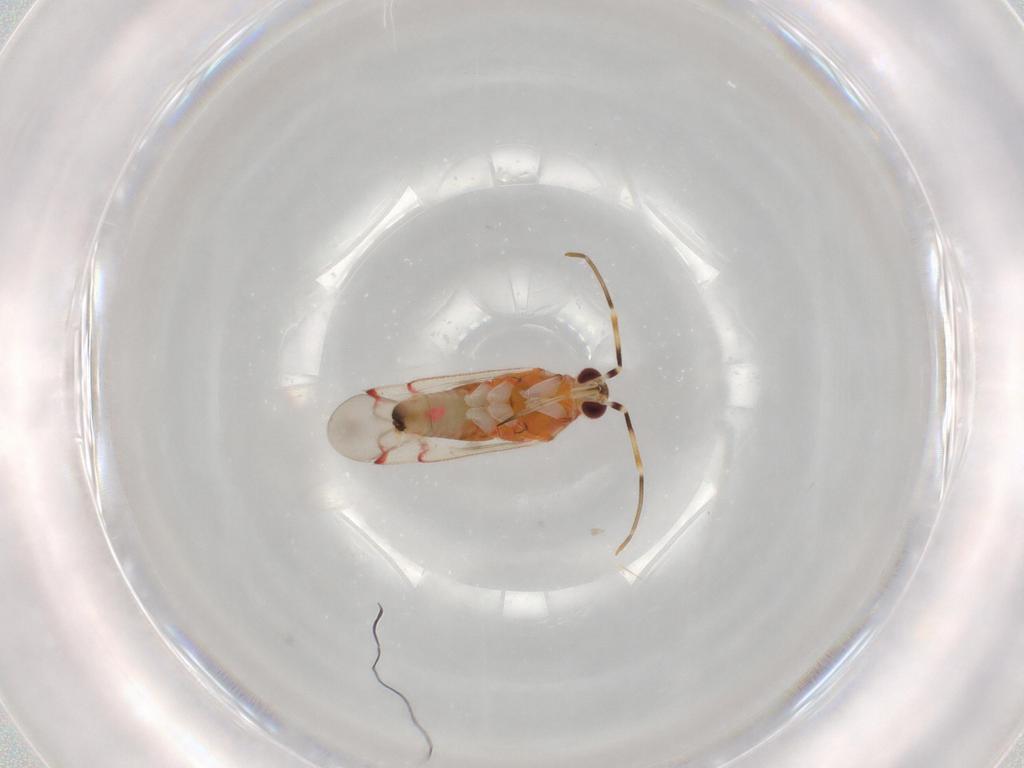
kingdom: Animalia
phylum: Arthropoda
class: Insecta
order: Hemiptera
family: Miridae
